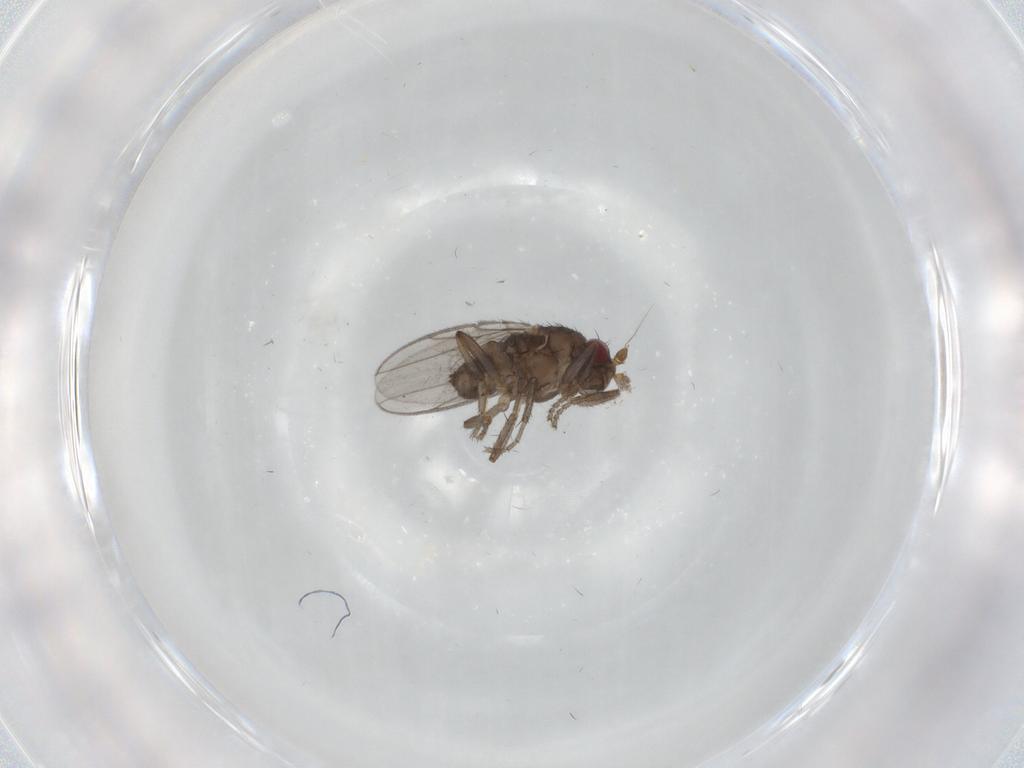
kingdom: Animalia
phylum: Arthropoda
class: Insecta
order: Diptera
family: Sphaeroceridae
